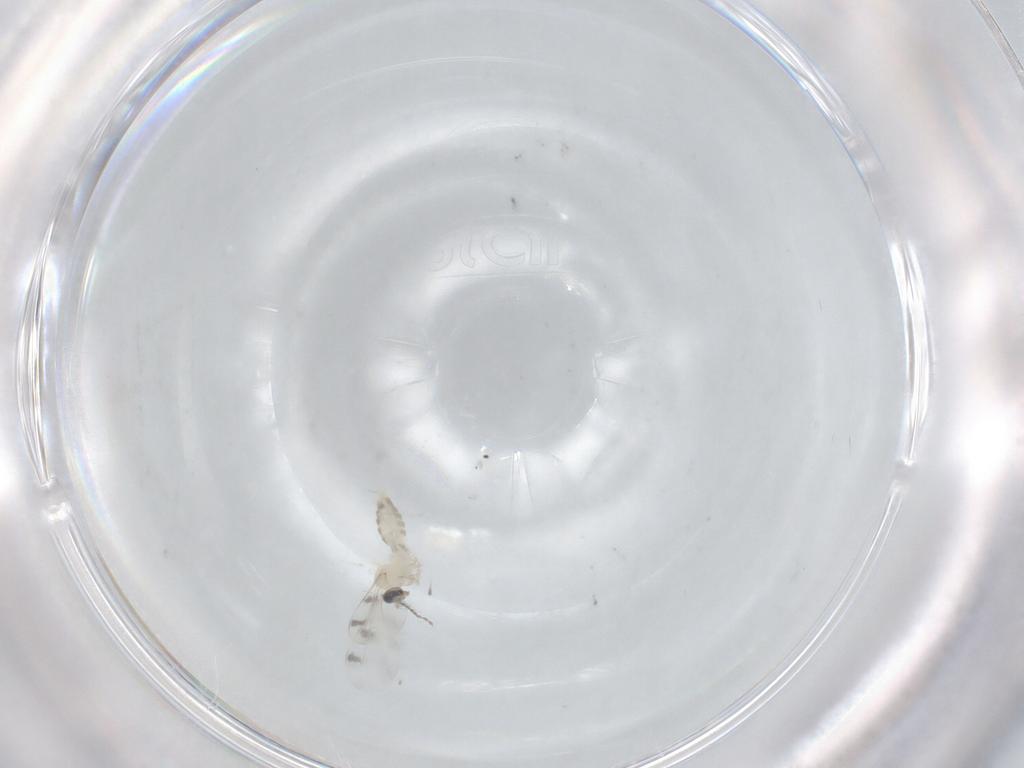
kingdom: Animalia
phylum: Arthropoda
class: Insecta
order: Diptera
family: Cecidomyiidae
